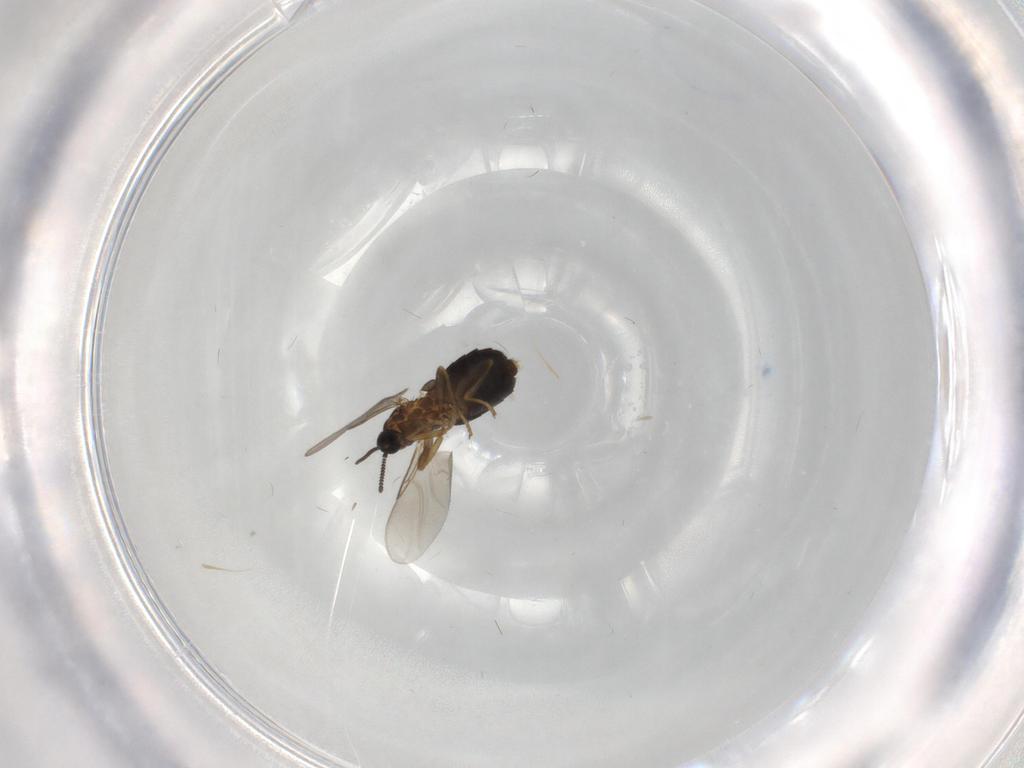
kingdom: Animalia
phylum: Arthropoda
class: Insecta
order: Diptera
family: Scatopsidae
